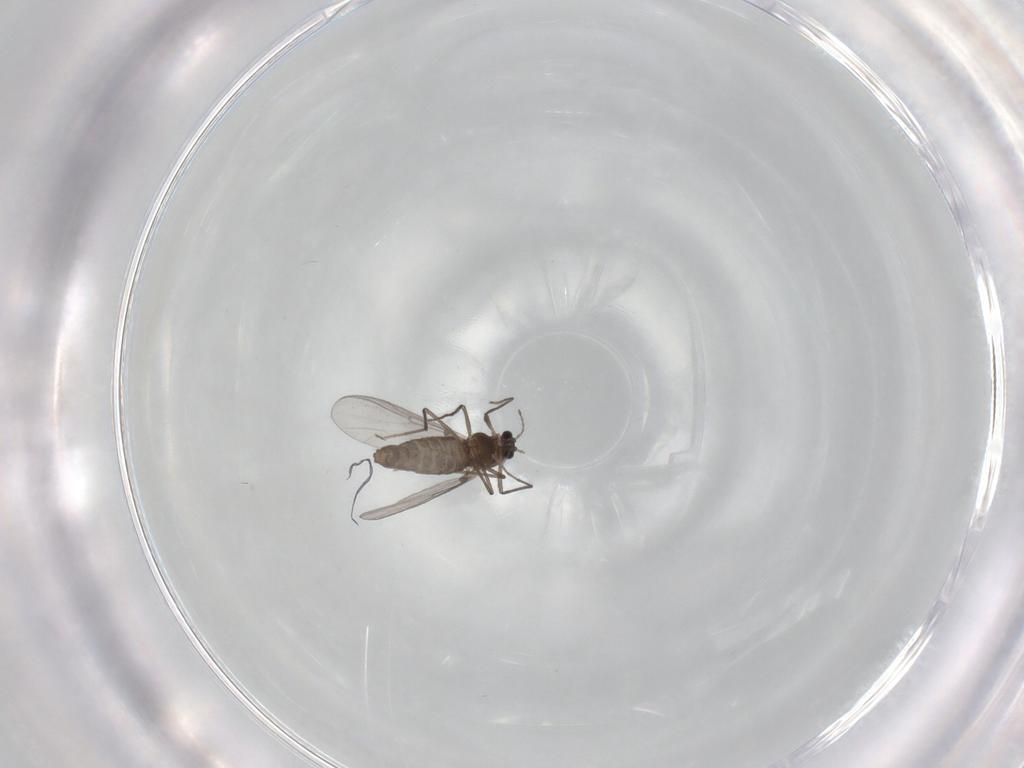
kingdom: Animalia
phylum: Arthropoda
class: Insecta
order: Diptera
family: Chironomidae
